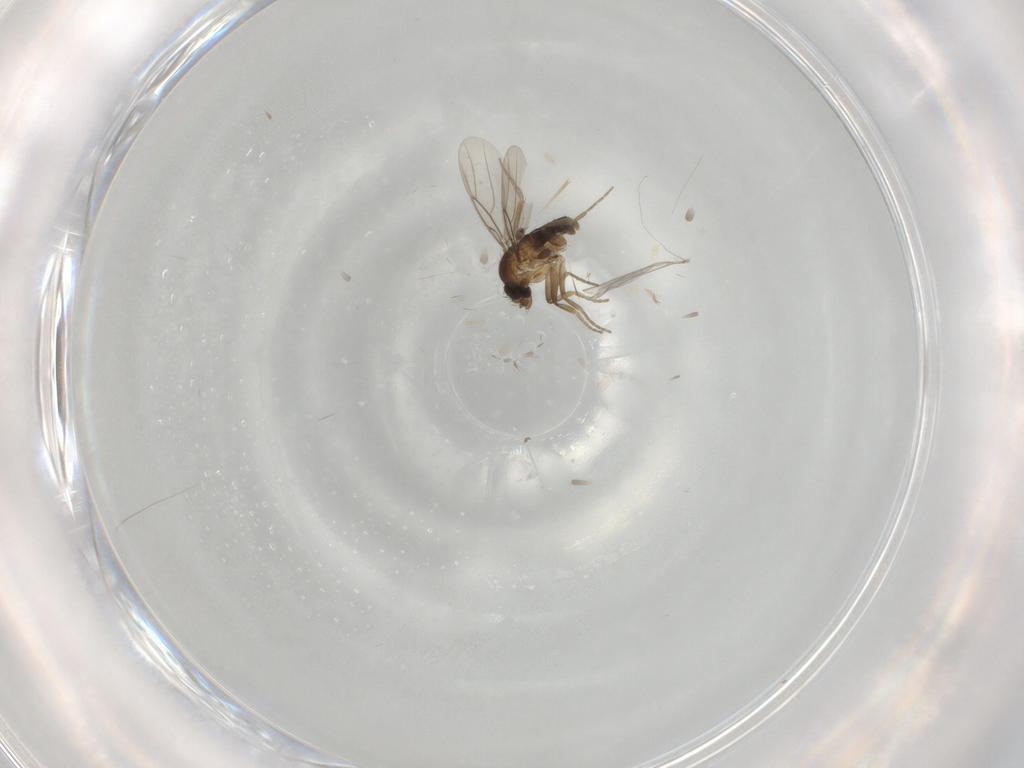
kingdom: Animalia
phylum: Arthropoda
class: Insecta
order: Diptera
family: Phoridae
